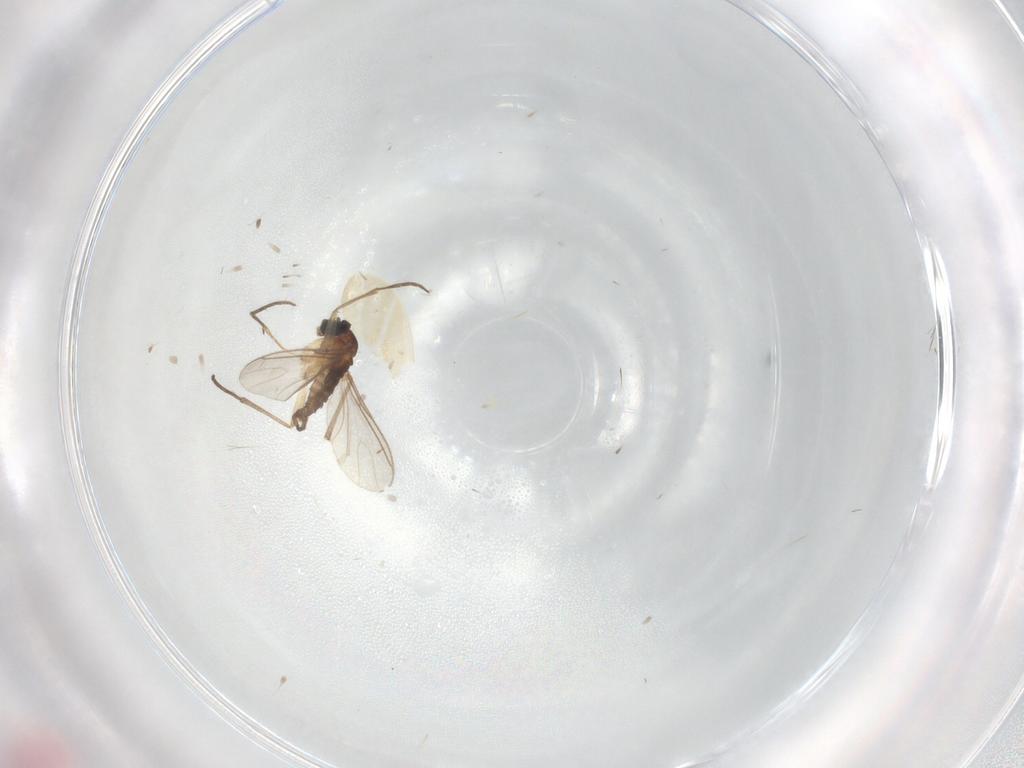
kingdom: Animalia
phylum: Arthropoda
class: Insecta
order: Diptera
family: Sciaridae
